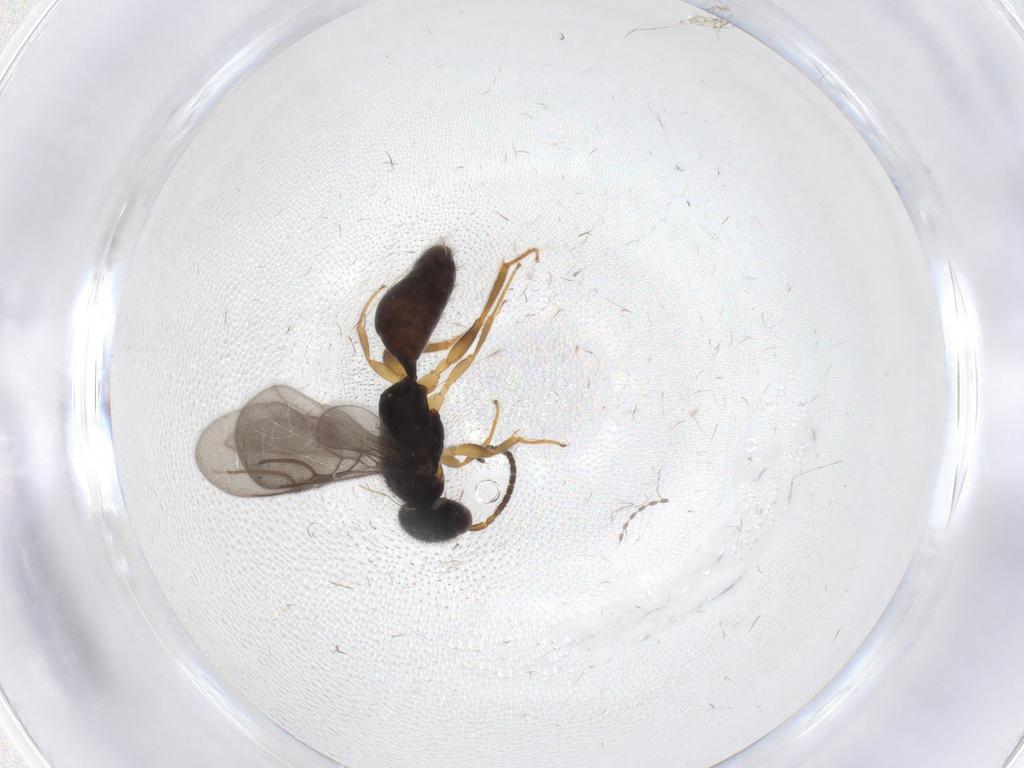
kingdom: Animalia
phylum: Arthropoda
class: Insecta
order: Hymenoptera
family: Bethylidae
